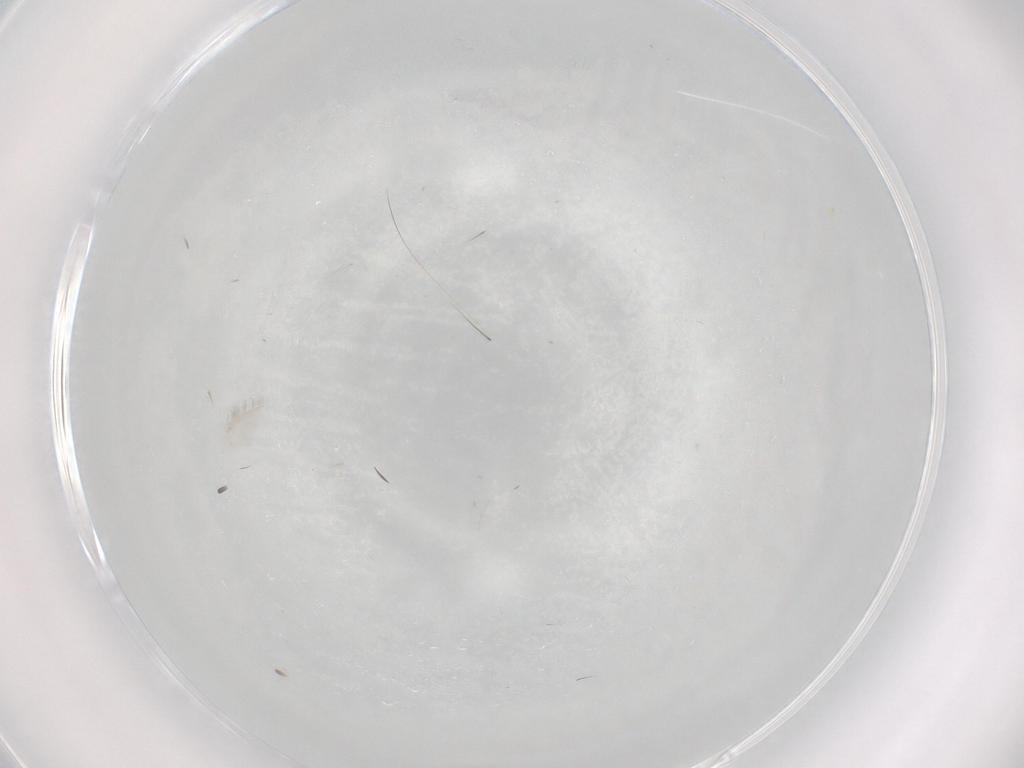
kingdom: Animalia
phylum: Arthropoda
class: Insecta
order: Diptera
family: Cecidomyiidae
